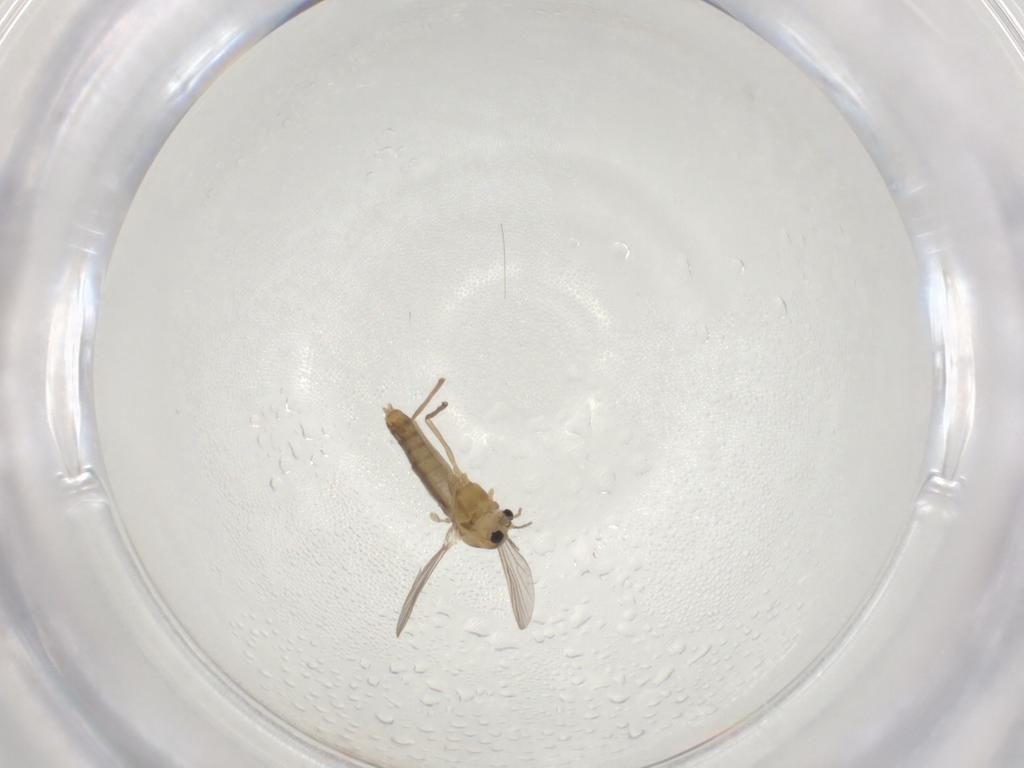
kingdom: Animalia
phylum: Arthropoda
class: Insecta
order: Diptera
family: Chironomidae
